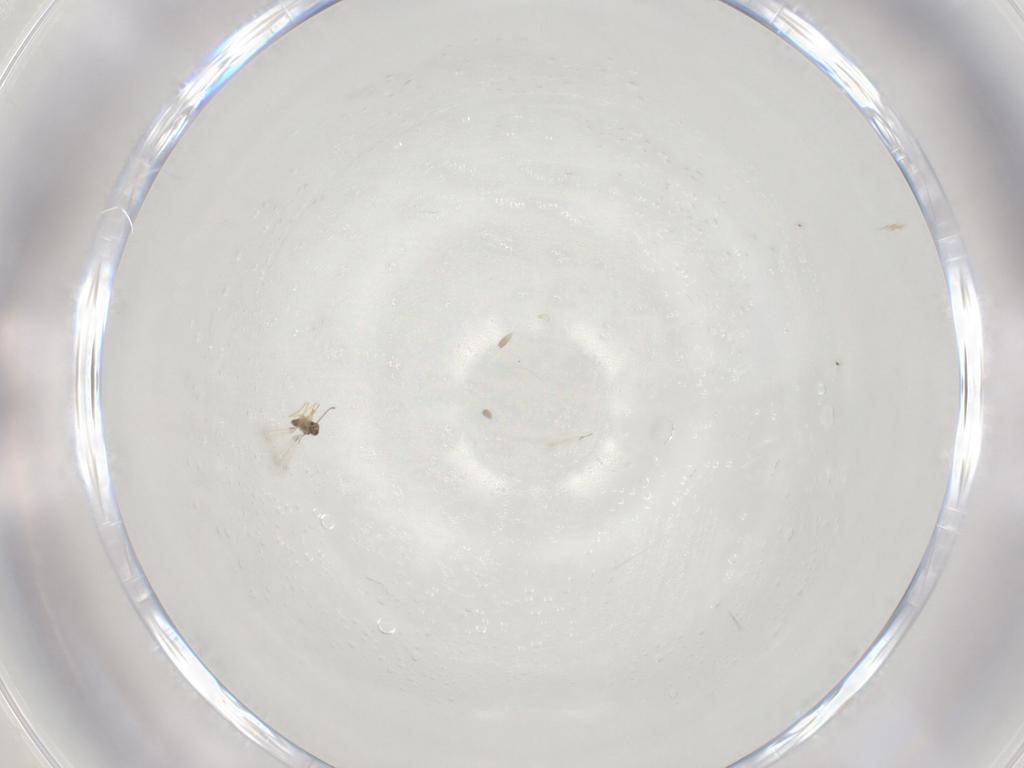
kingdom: Animalia
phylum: Arthropoda
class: Insecta
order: Hymenoptera
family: Mymaridae
